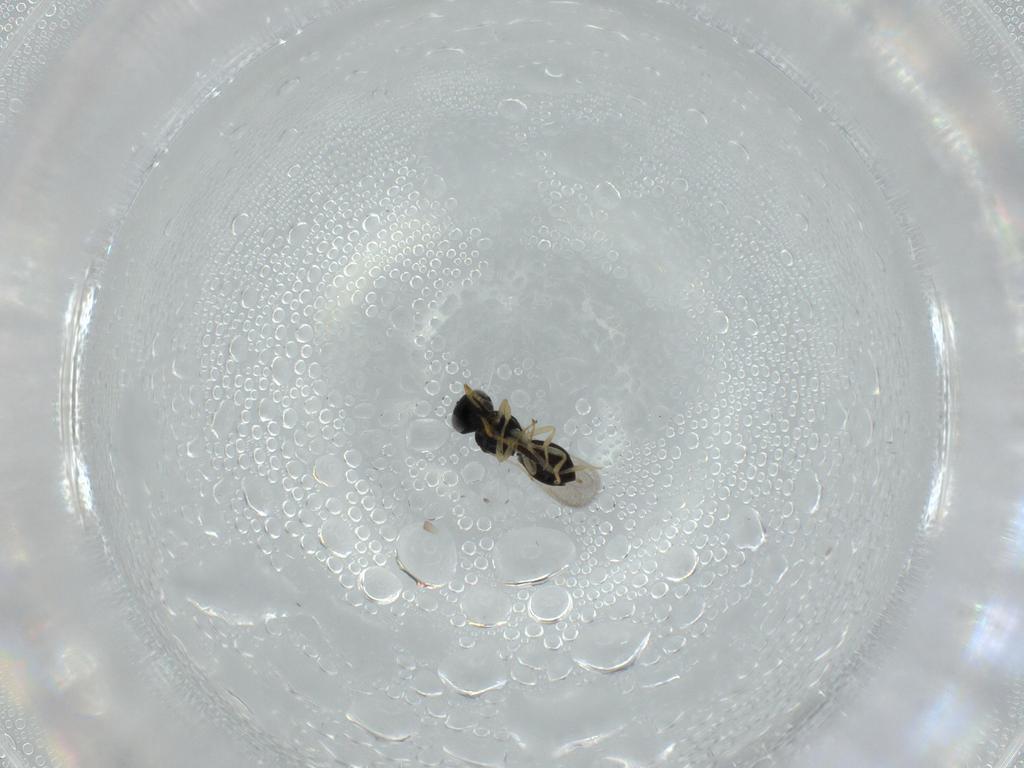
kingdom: Animalia
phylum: Arthropoda
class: Insecta
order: Hymenoptera
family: Scelionidae
